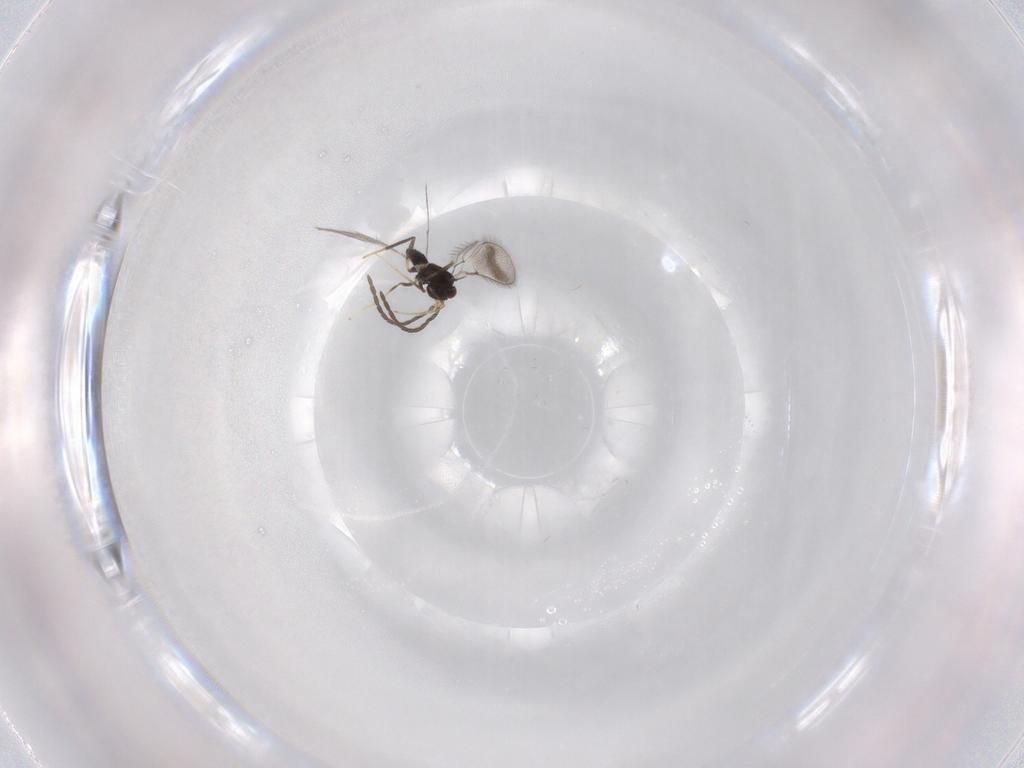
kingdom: Animalia
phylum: Arthropoda
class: Insecta
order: Hymenoptera
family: Mymaridae
